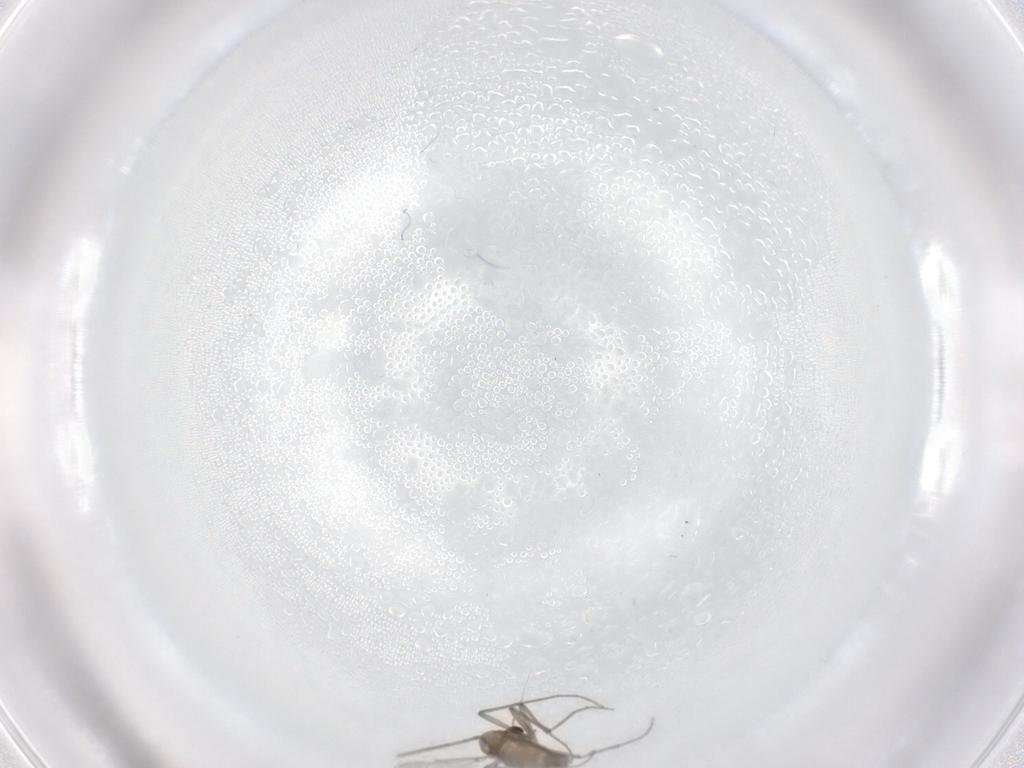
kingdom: Animalia
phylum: Arthropoda
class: Insecta
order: Diptera
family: Chironomidae
